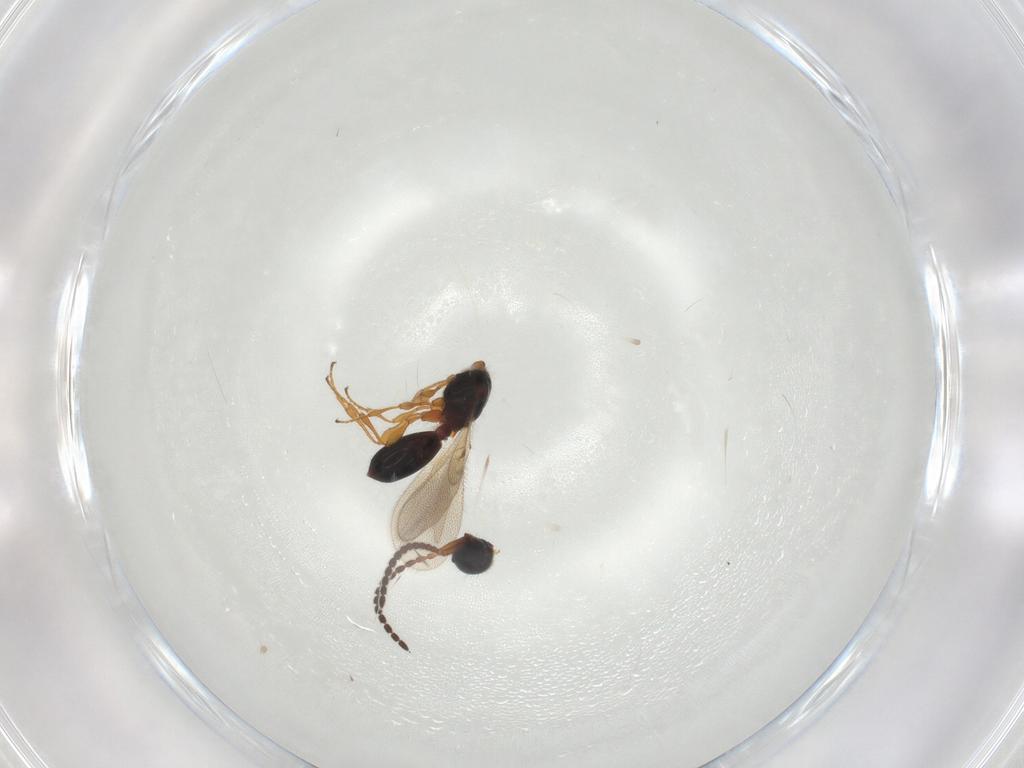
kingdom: Animalia
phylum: Arthropoda
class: Insecta
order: Hymenoptera
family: Diapriidae
